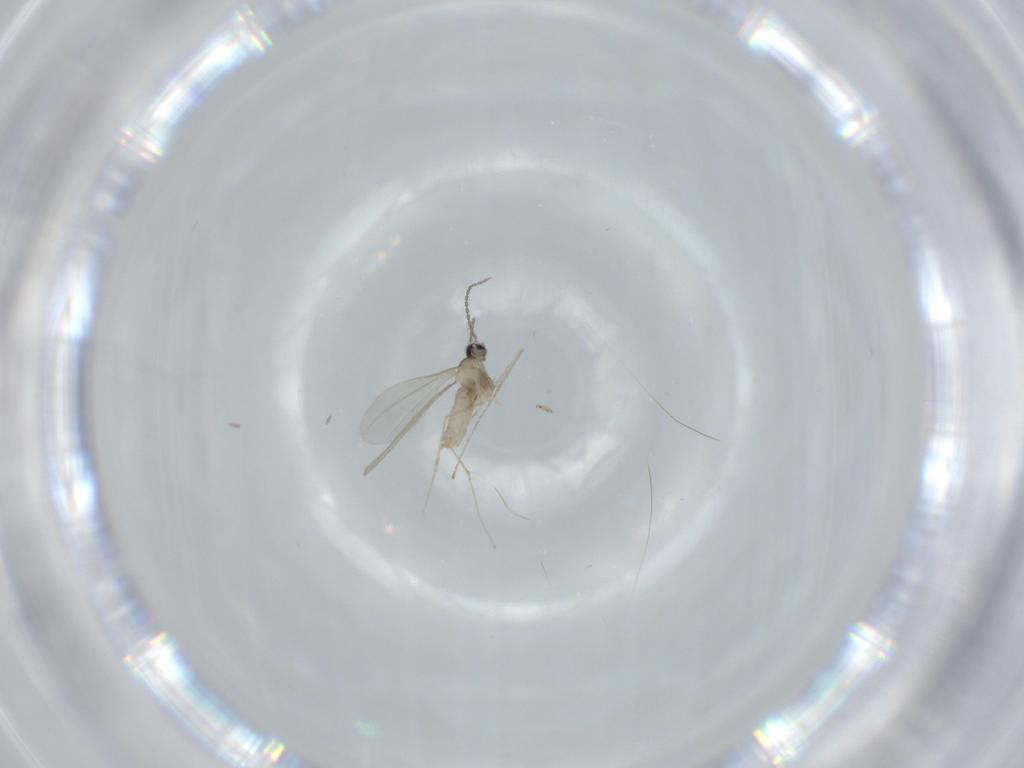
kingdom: Animalia
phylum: Arthropoda
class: Insecta
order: Diptera
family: Cecidomyiidae
